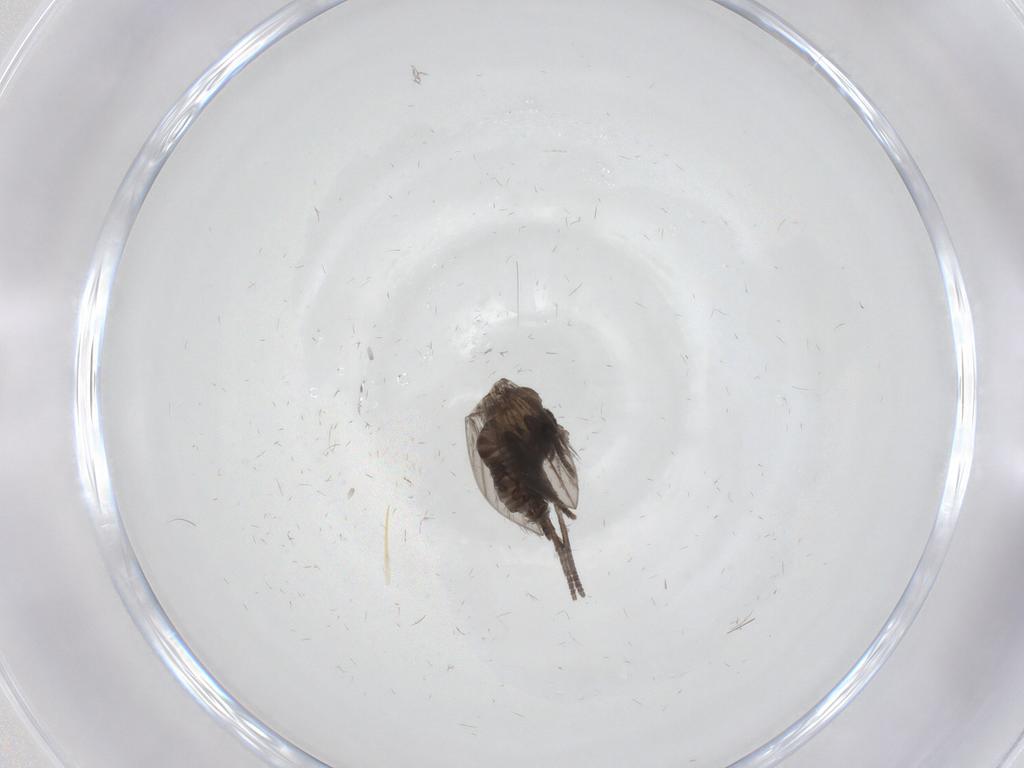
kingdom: Animalia
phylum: Arthropoda
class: Insecta
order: Diptera
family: Psychodidae
